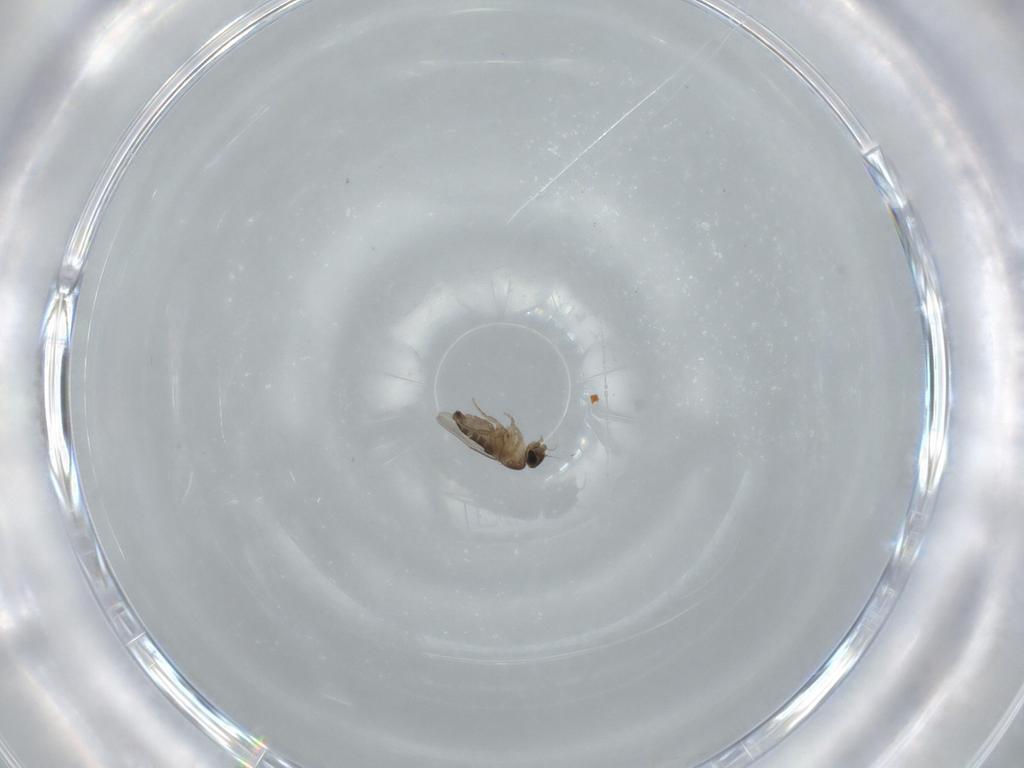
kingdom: Animalia
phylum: Arthropoda
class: Insecta
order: Diptera
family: Phoridae
